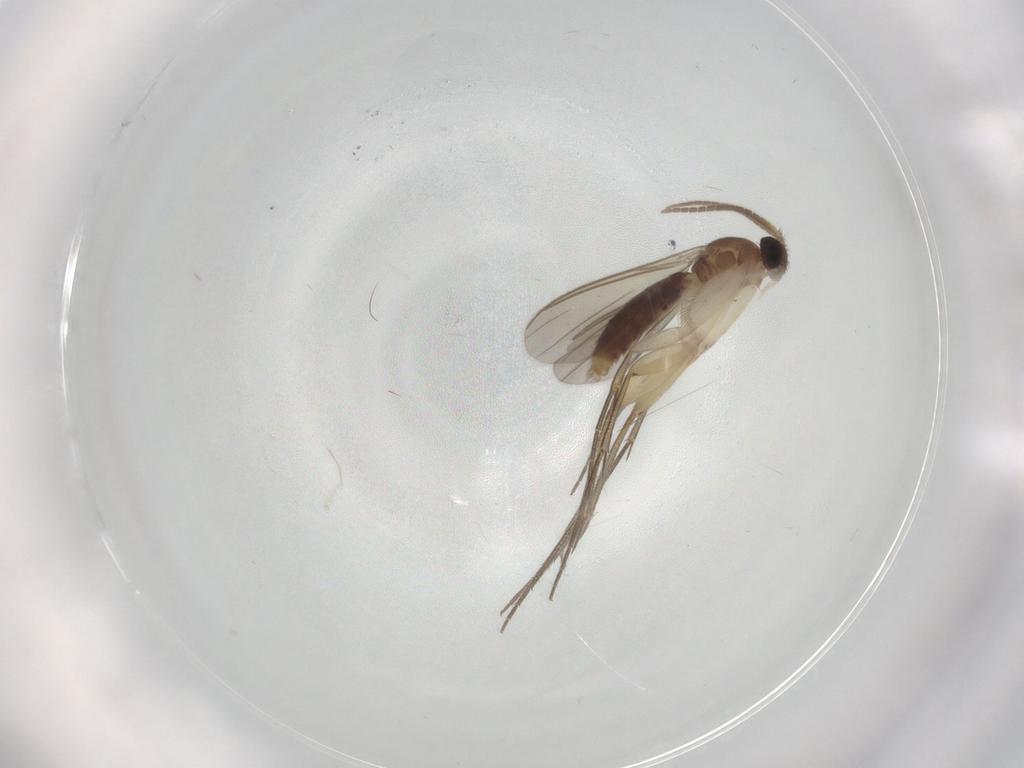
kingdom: Animalia
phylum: Arthropoda
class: Insecta
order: Diptera
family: Mycetophilidae
